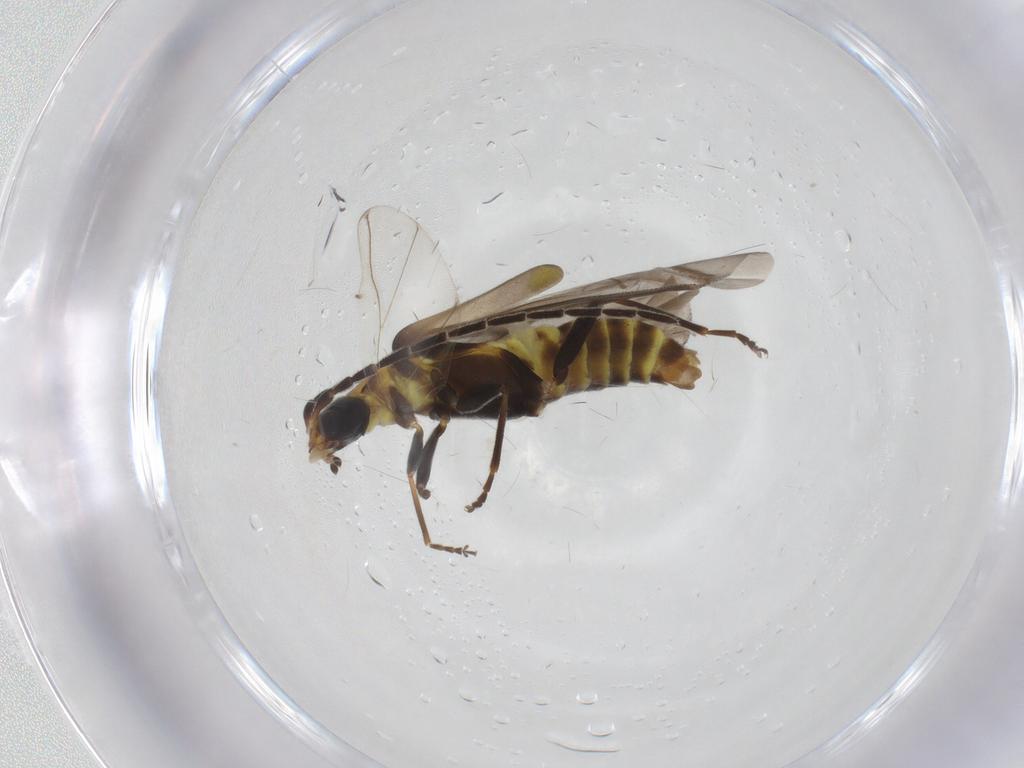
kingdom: Animalia
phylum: Arthropoda
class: Insecta
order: Coleoptera
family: Cantharidae
